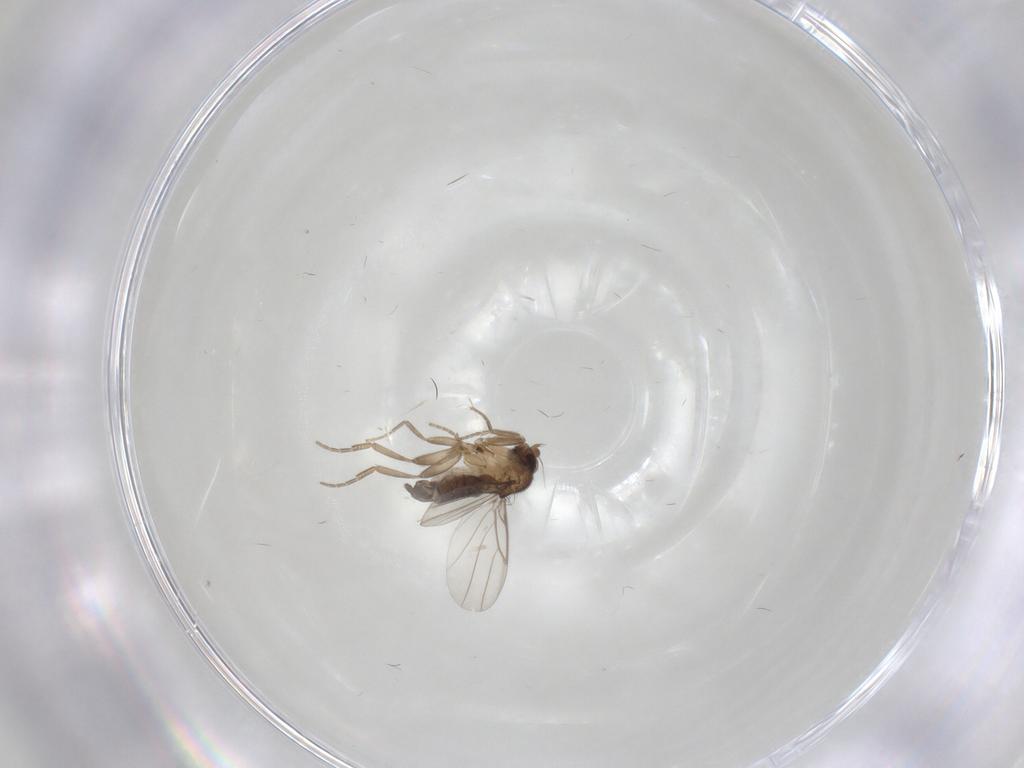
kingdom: Animalia
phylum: Arthropoda
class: Insecta
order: Diptera
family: Phoridae
